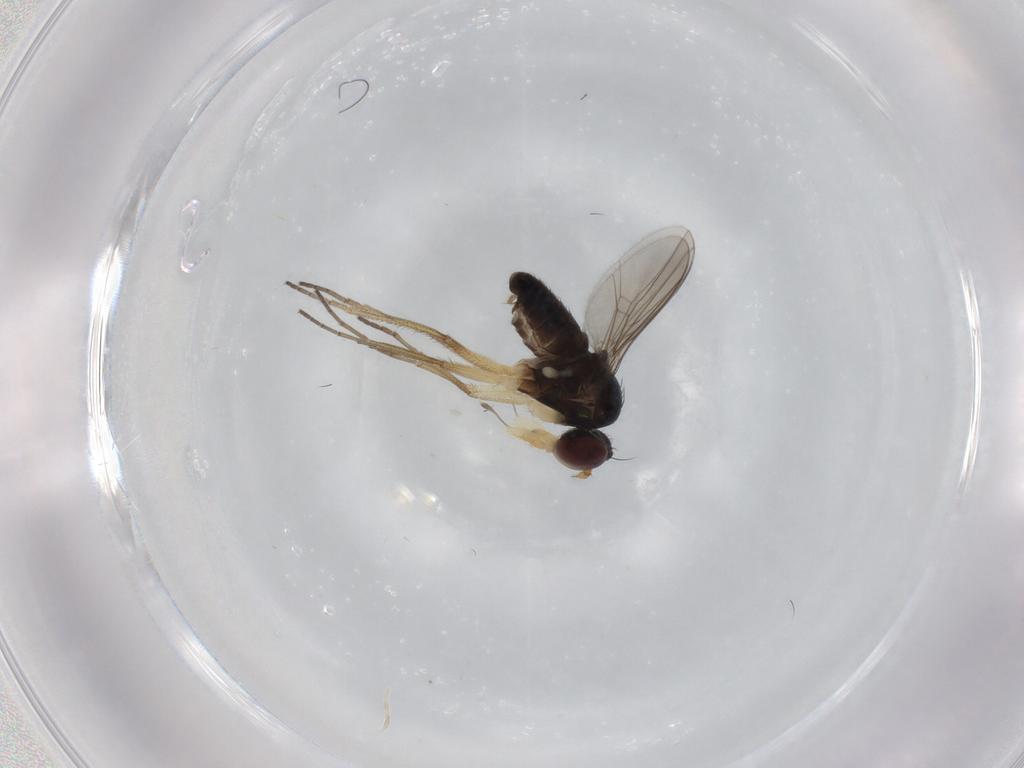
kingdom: Animalia
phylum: Arthropoda
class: Insecta
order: Diptera
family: Dolichopodidae
